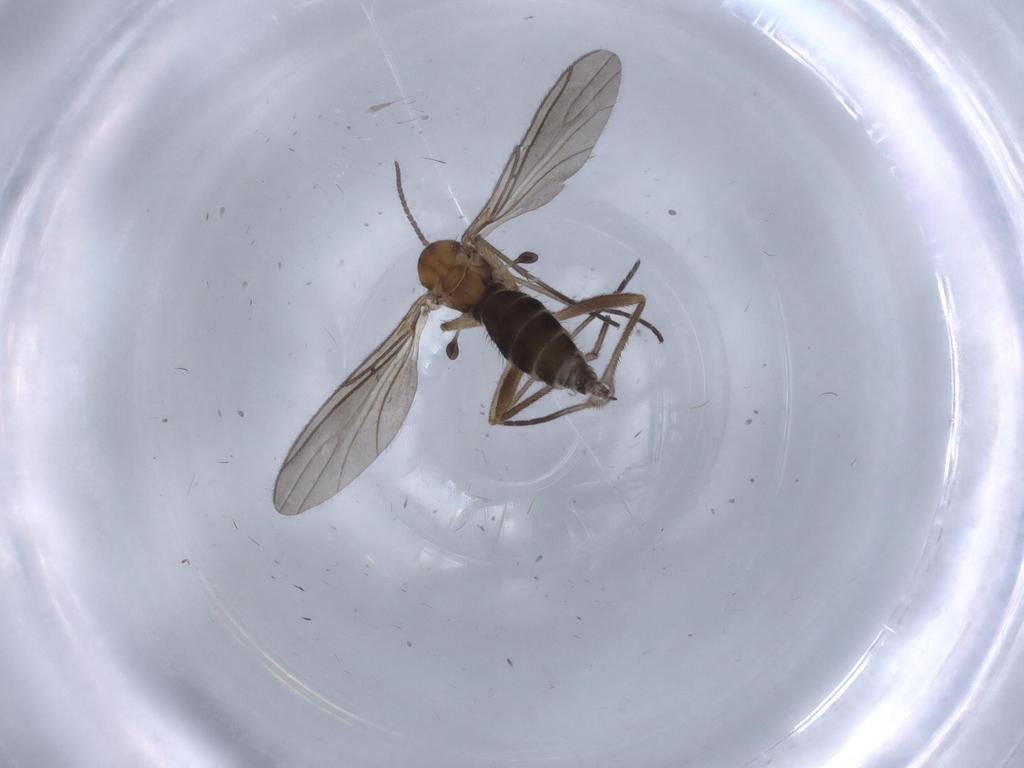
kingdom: Animalia
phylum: Arthropoda
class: Insecta
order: Diptera
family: Sciaridae
